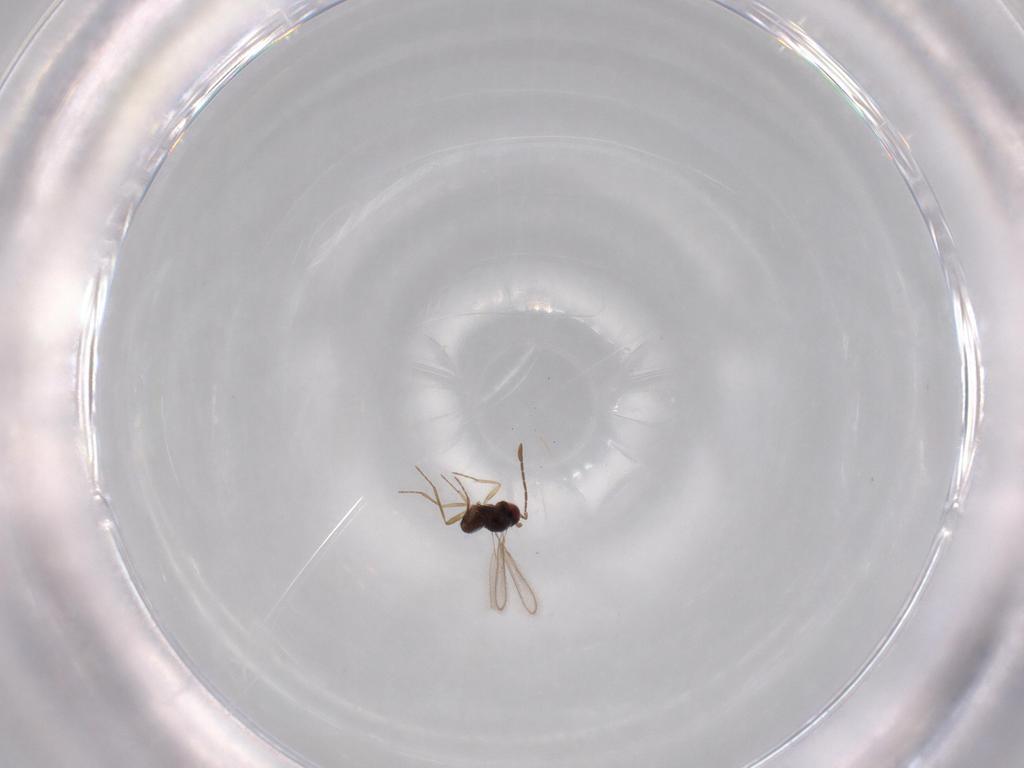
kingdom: Animalia
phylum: Arthropoda
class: Insecta
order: Hymenoptera
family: Mymaridae
